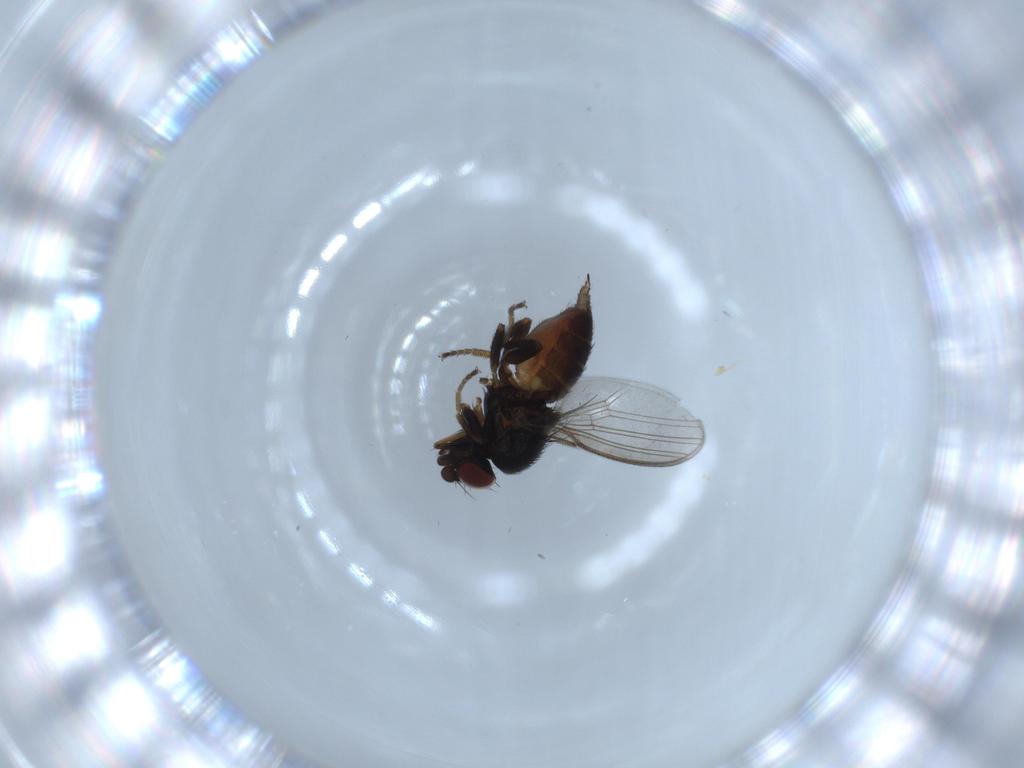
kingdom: Animalia
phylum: Arthropoda
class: Insecta
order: Diptera
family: Milichiidae
